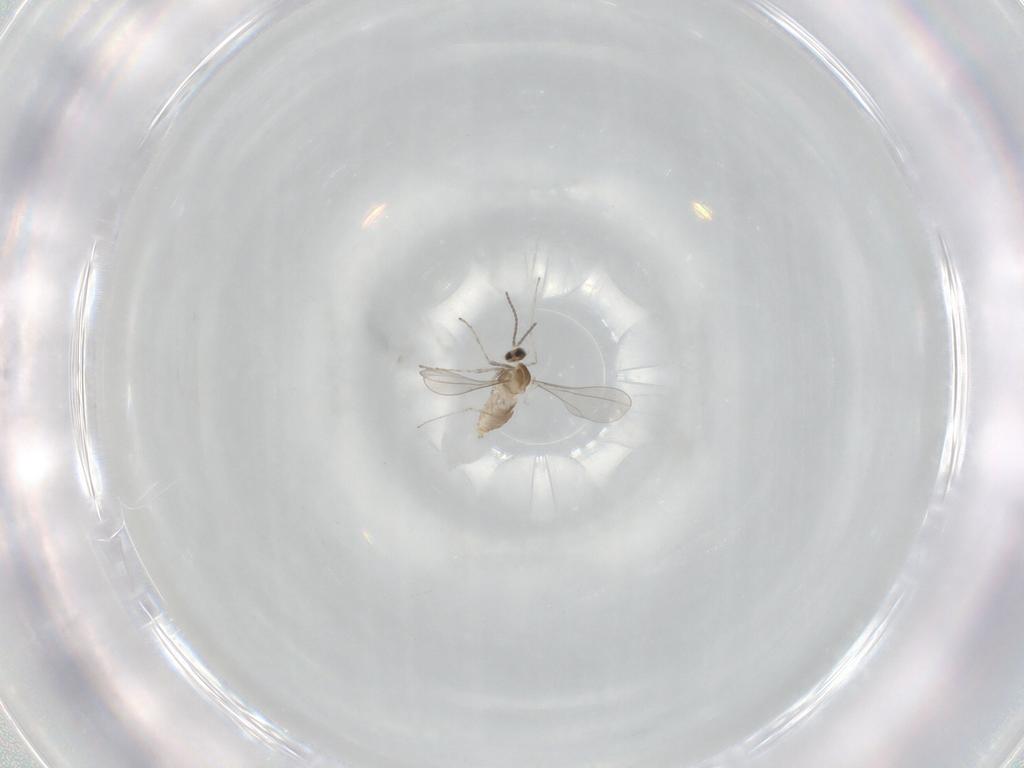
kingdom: Animalia
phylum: Arthropoda
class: Insecta
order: Diptera
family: Cecidomyiidae
